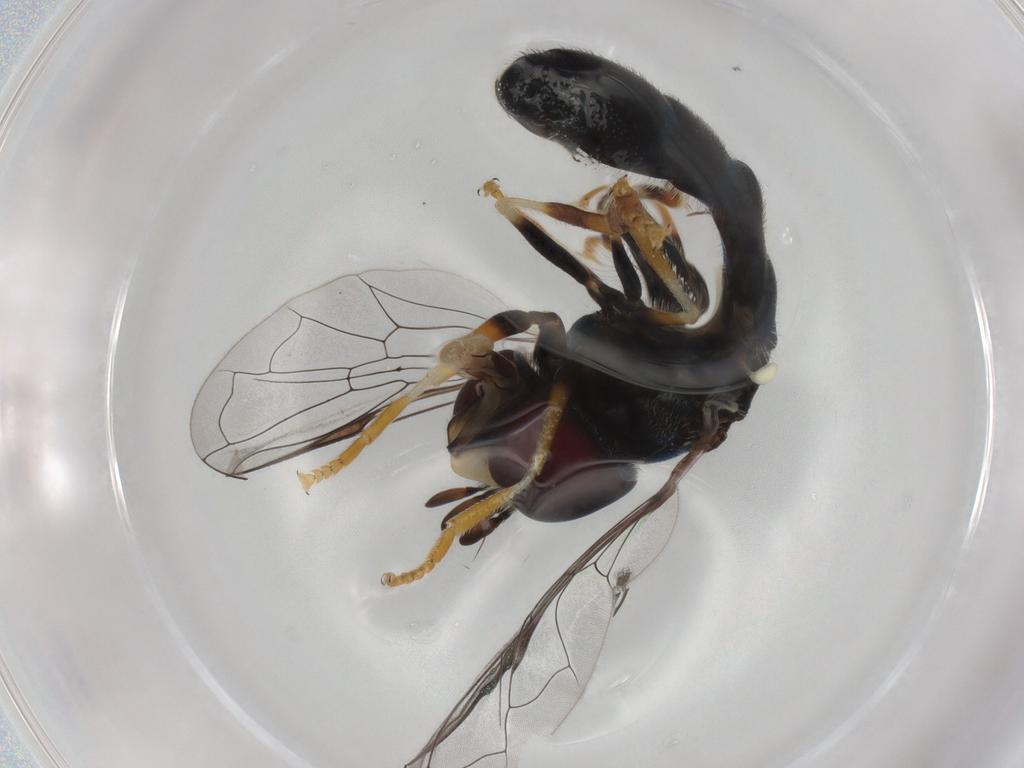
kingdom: Animalia
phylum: Arthropoda
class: Insecta
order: Diptera
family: Syrphidae
